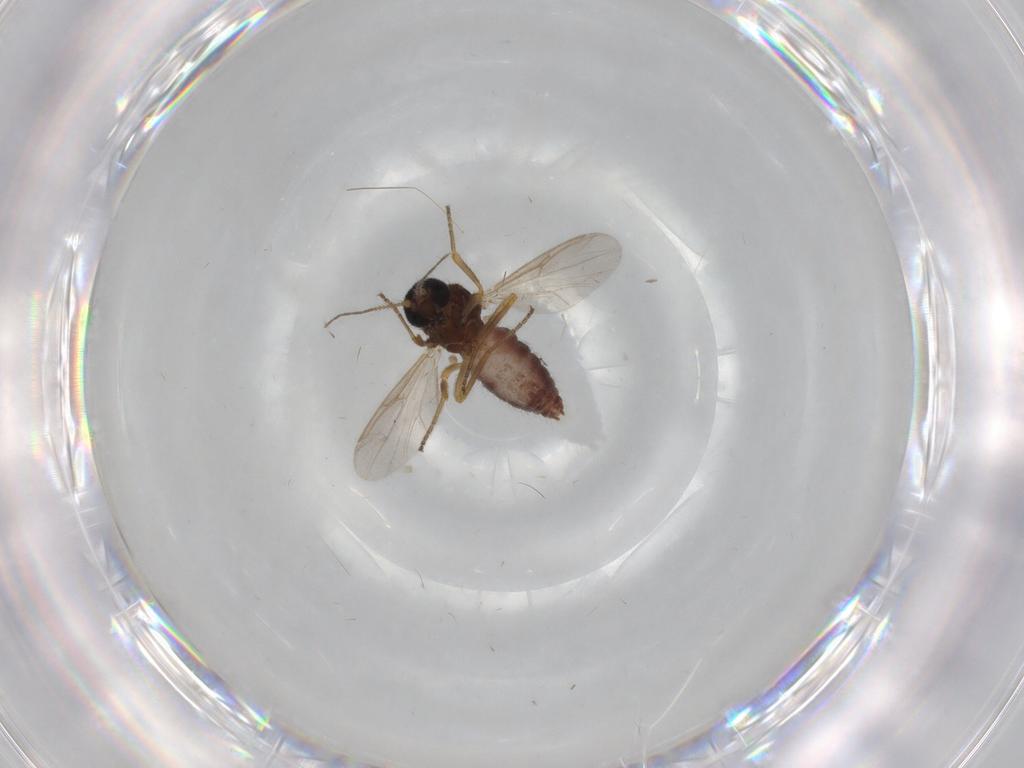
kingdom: Animalia
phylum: Arthropoda
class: Insecta
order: Diptera
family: Ceratopogonidae
